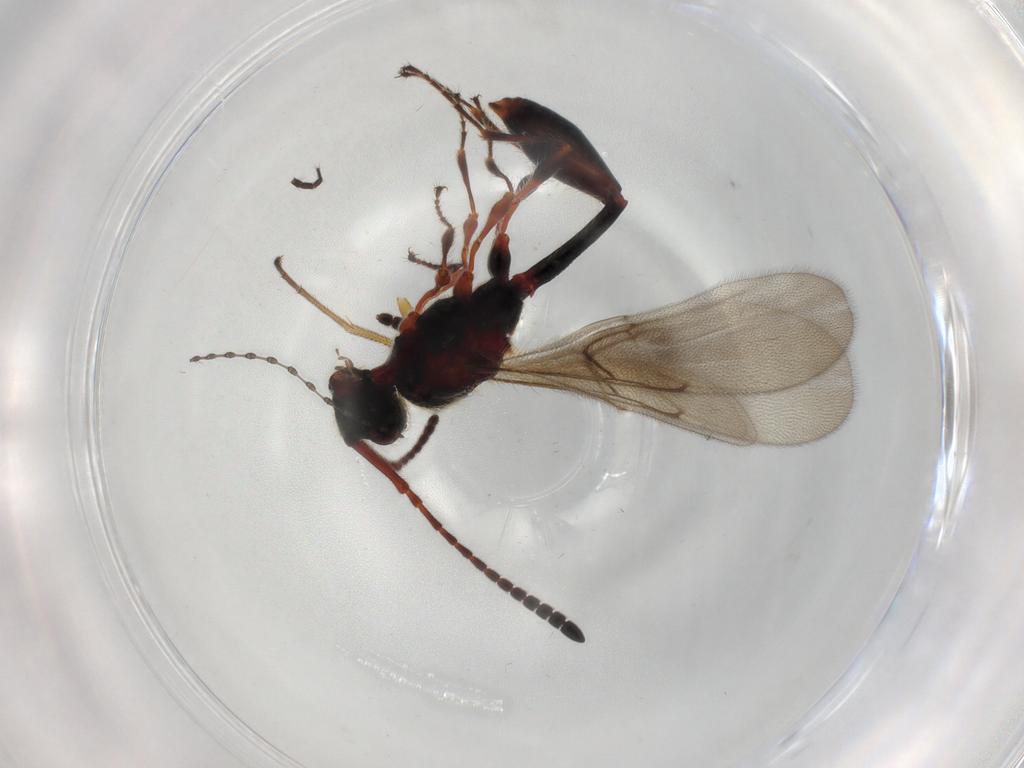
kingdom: Animalia
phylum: Arthropoda
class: Insecta
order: Hymenoptera
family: Diapriidae
